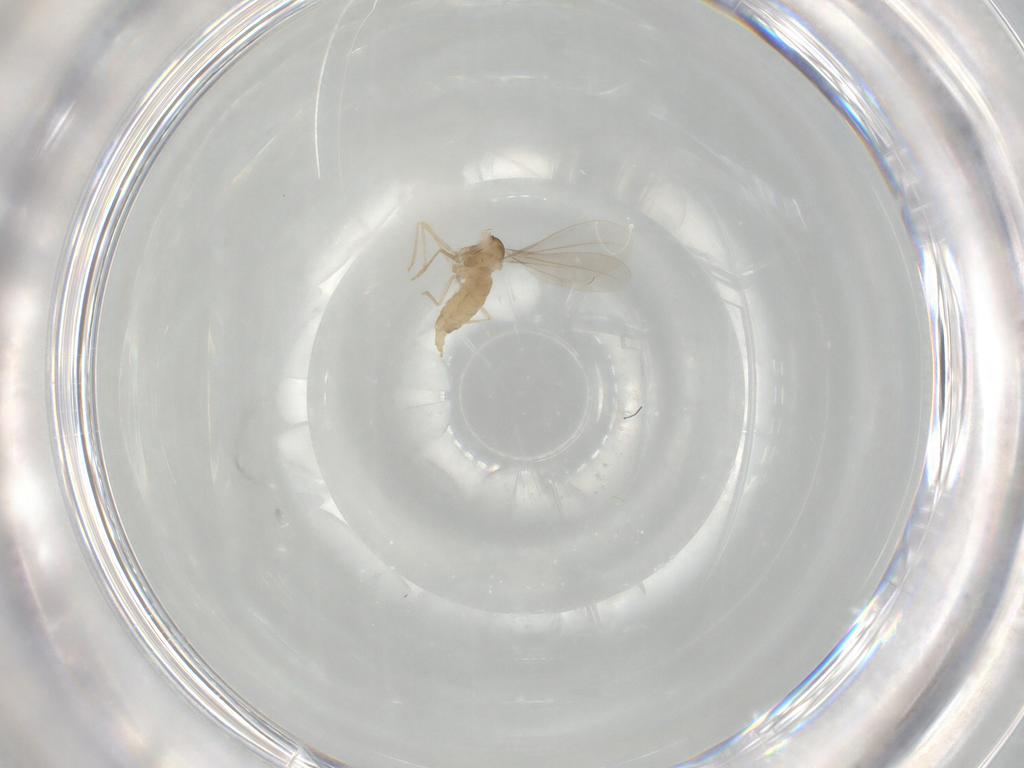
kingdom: Animalia
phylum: Arthropoda
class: Insecta
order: Diptera
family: Cecidomyiidae
